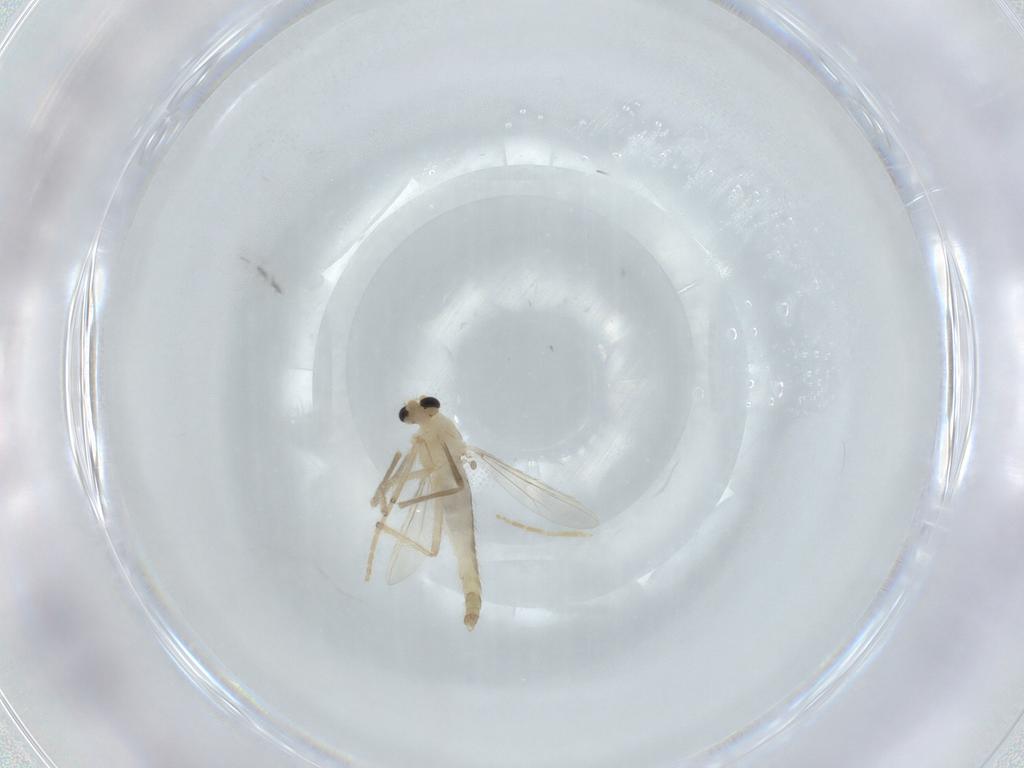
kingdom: Animalia
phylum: Arthropoda
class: Insecta
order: Diptera
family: Chironomidae
